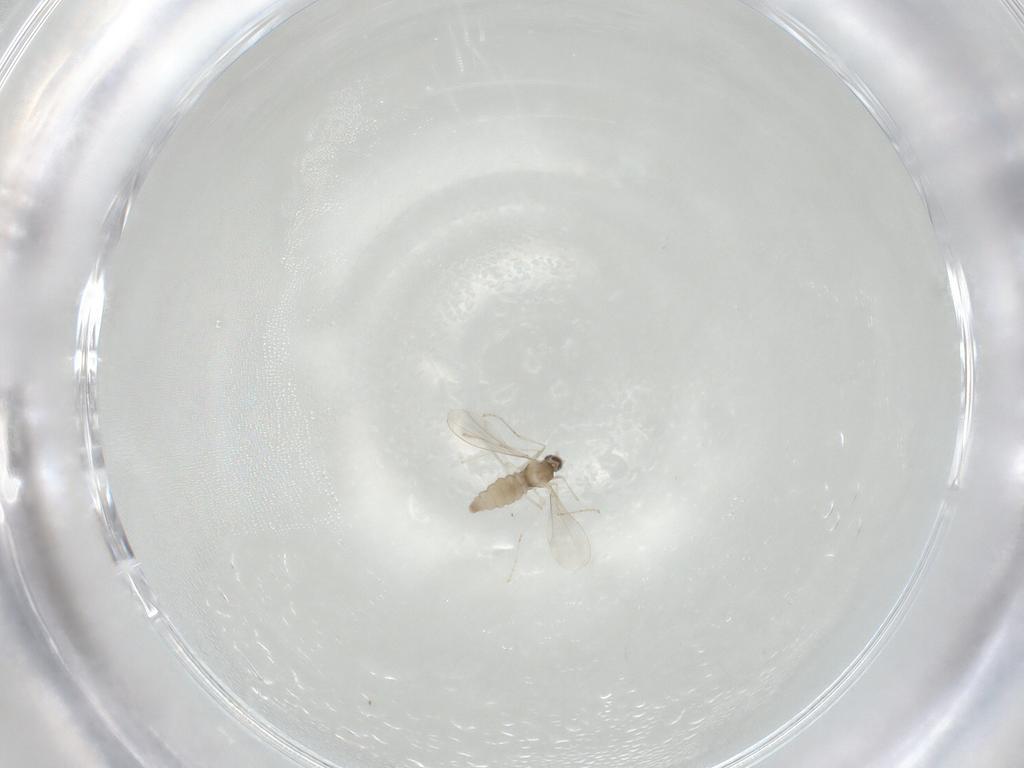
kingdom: Animalia
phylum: Arthropoda
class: Insecta
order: Diptera
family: Cecidomyiidae
